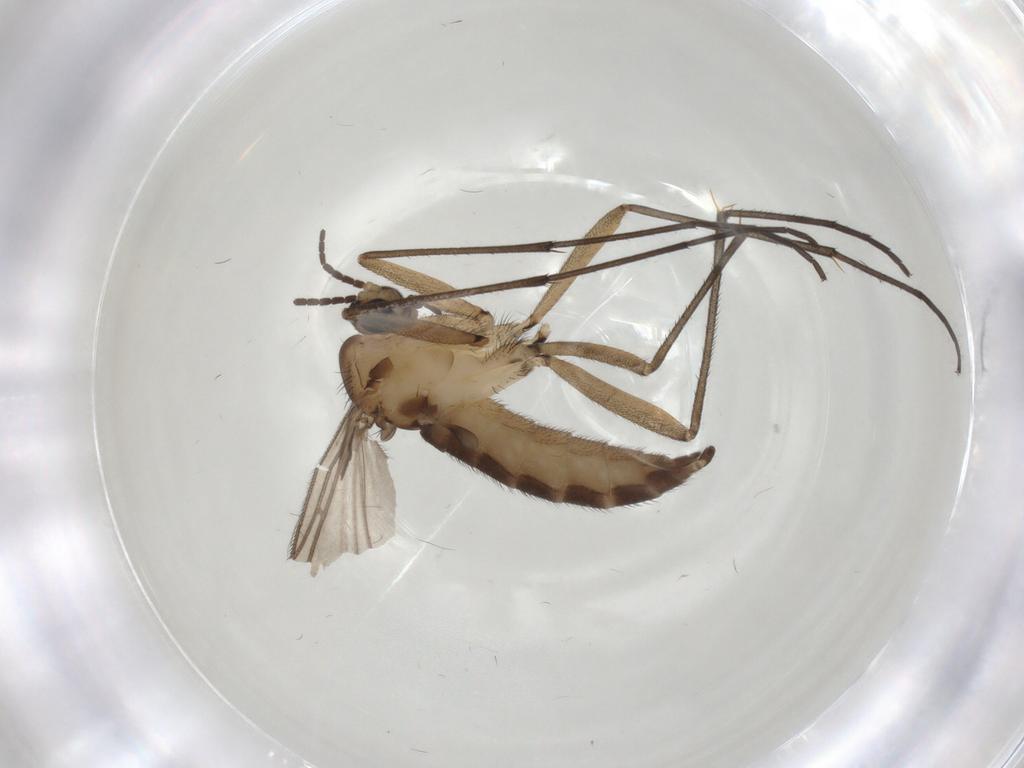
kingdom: Animalia
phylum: Arthropoda
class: Insecta
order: Diptera
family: Sciaridae
